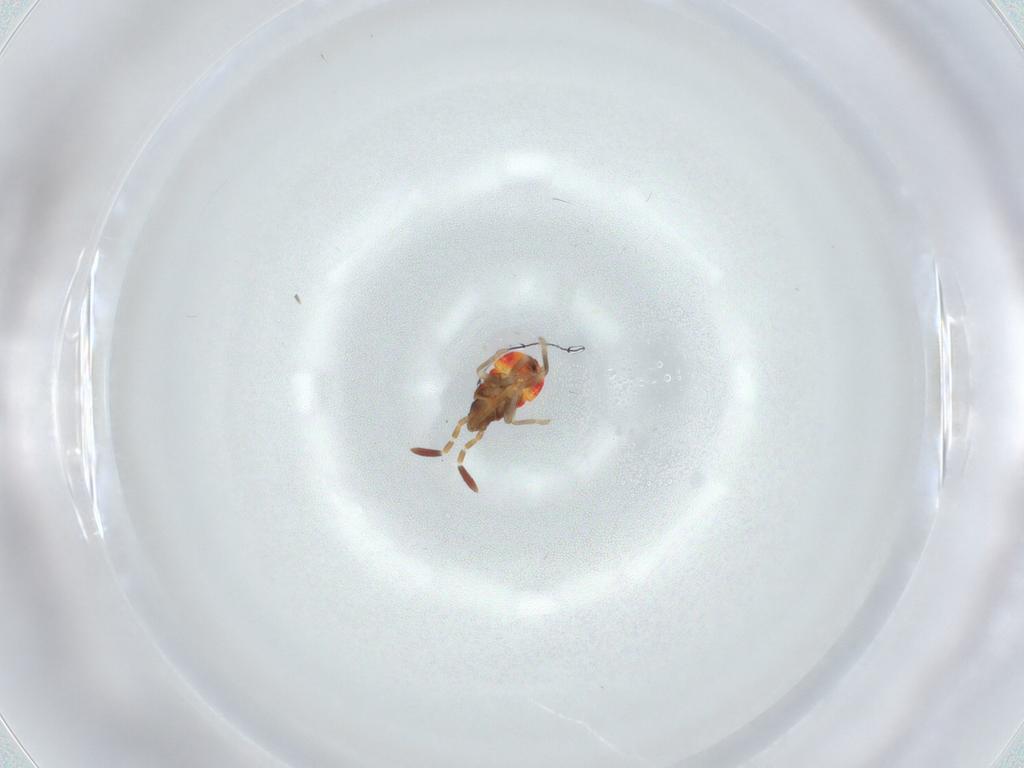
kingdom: Animalia
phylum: Arthropoda
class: Insecta
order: Hemiptera
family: Rhyparochromidae
